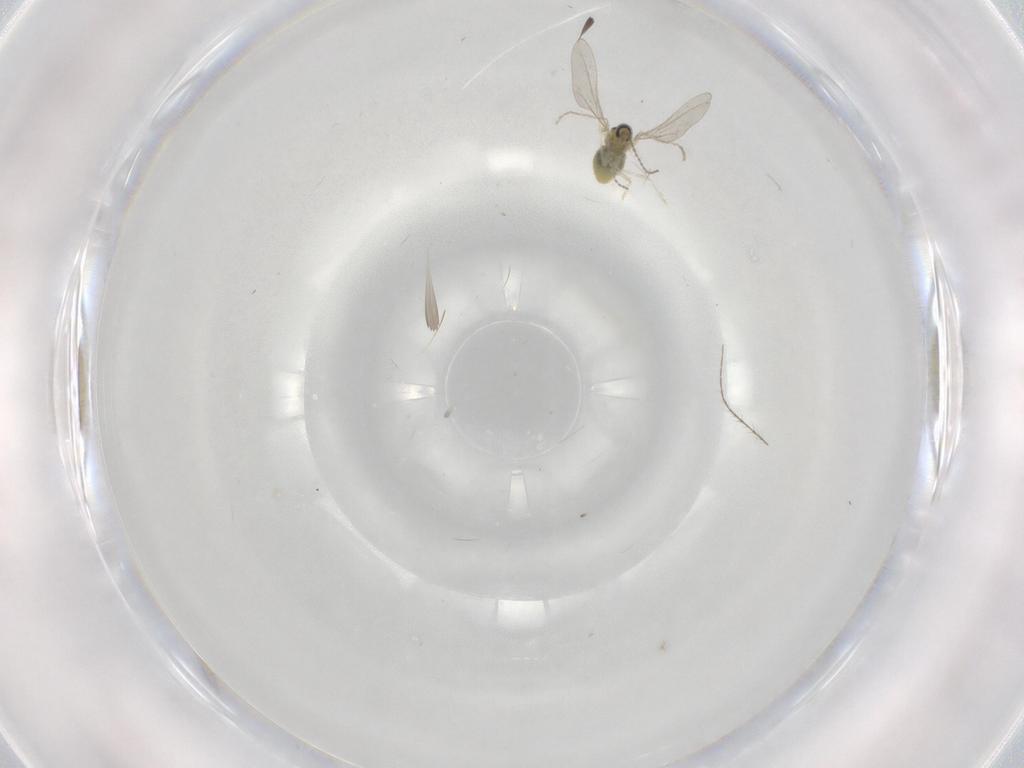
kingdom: Animalia
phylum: Arthropoda
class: Insecta
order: Diptera
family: Cecidomyiidae
